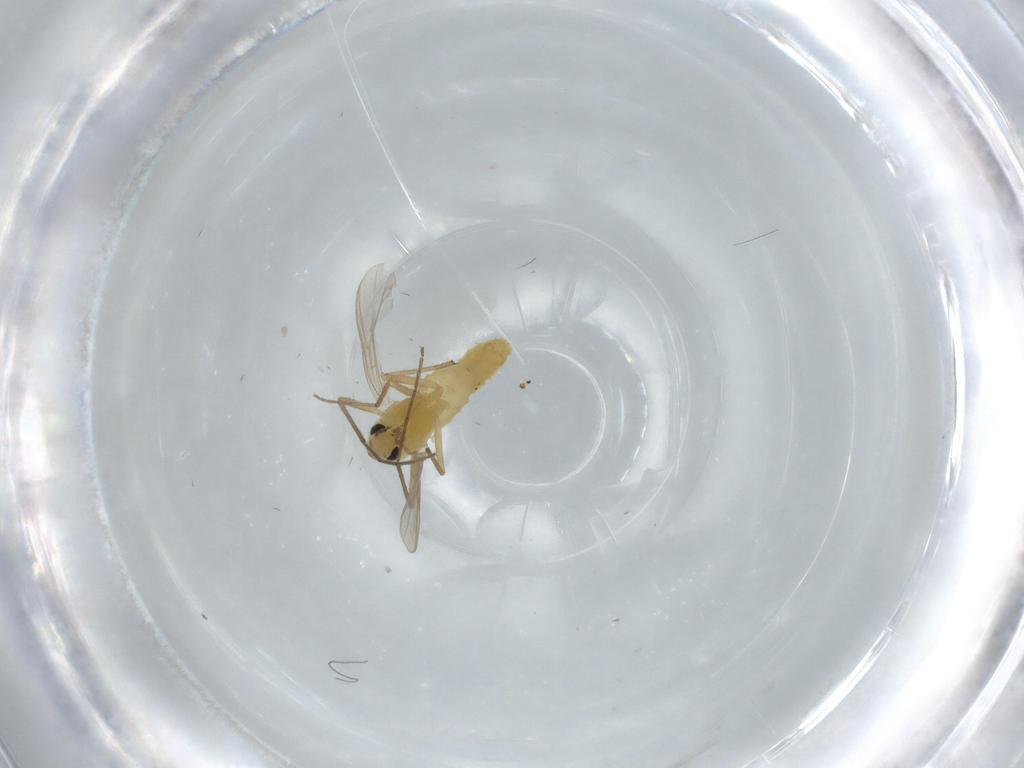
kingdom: Animalia
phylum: Arthropoda
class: Insecta
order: Diptera
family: Chironomidae
